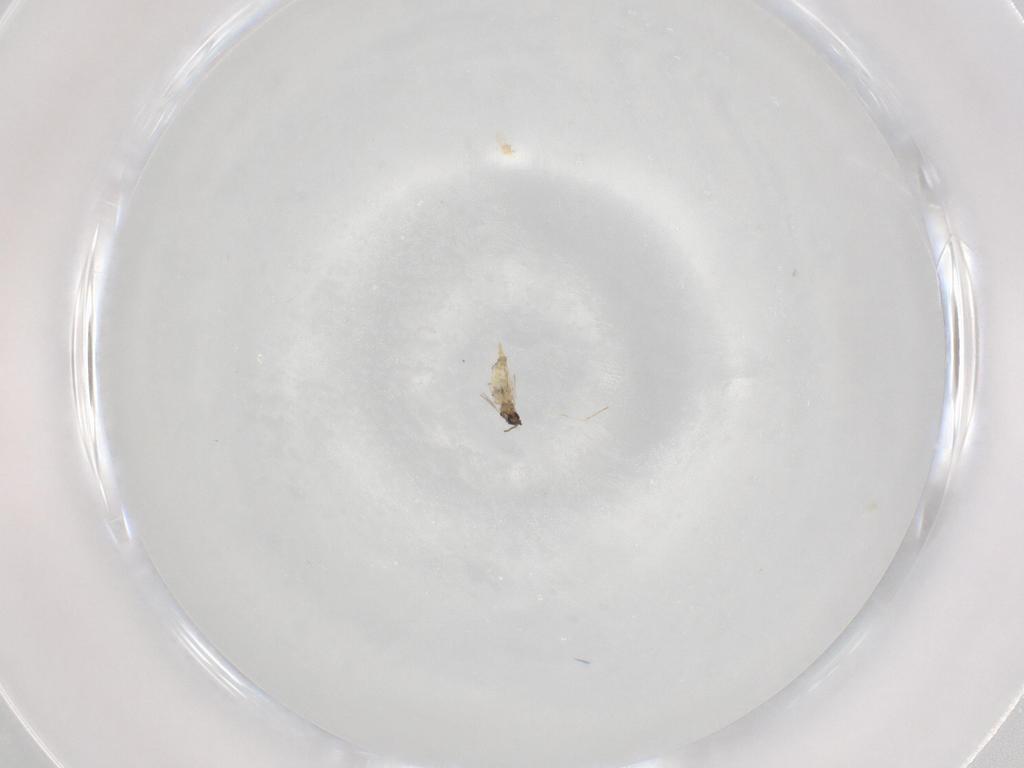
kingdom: Animalia
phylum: Arthropoda
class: Insecta
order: Diptera
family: Cecidomyiidae
